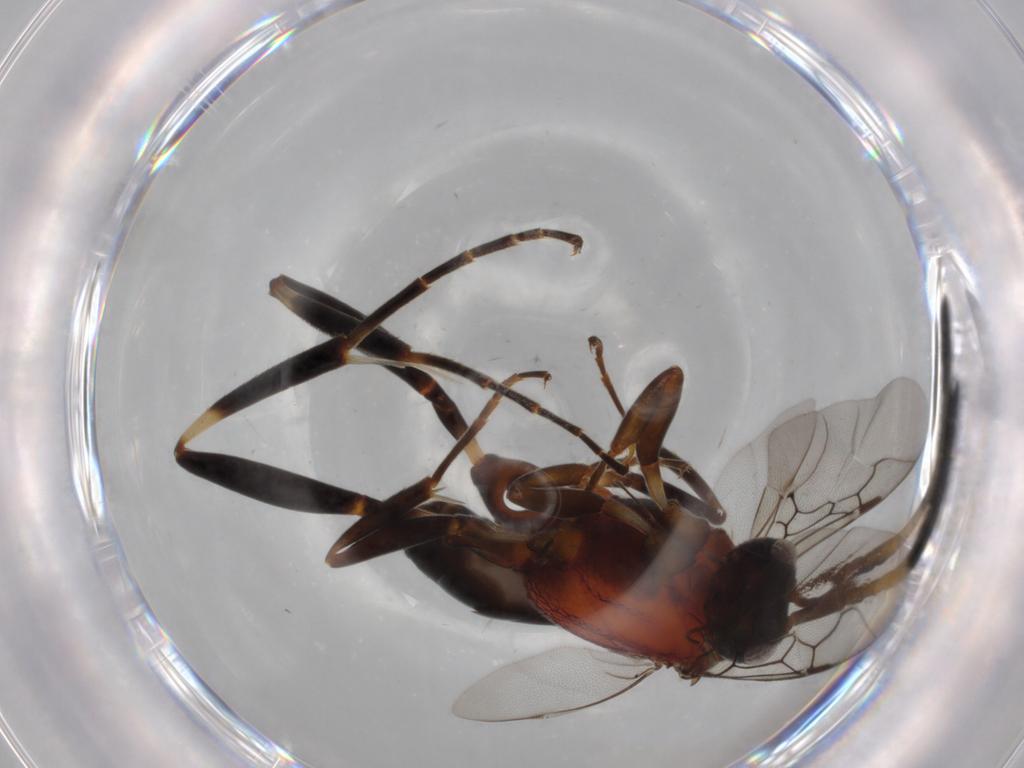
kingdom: Animalia
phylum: Arthropoda
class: Insecta
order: Hymenoptera
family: Mymaridae
